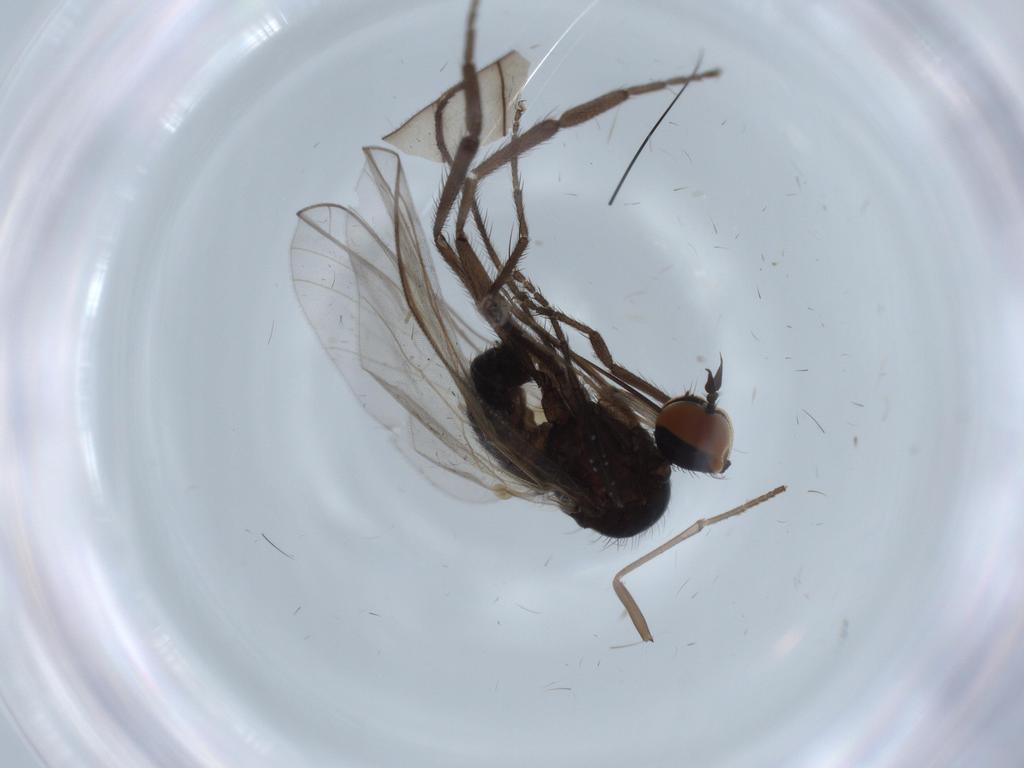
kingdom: Animalia
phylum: Arthropoda
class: Insecta
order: Diptera
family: Empididae
